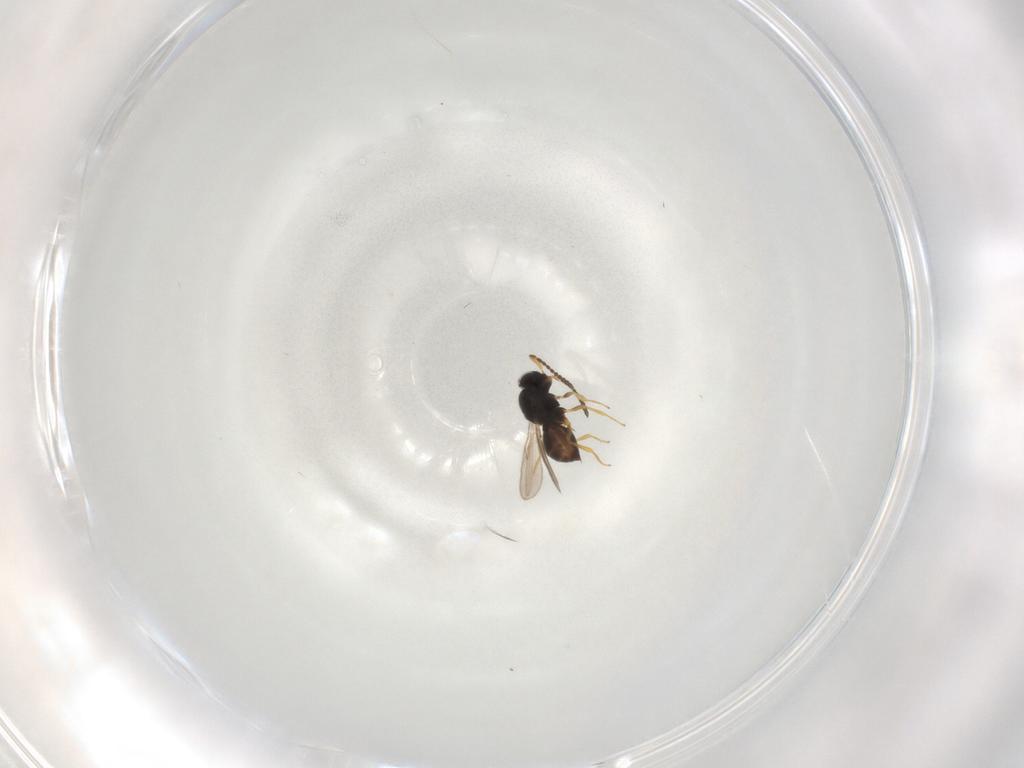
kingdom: Animalia
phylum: Arthropoda
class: Insecta
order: Hymenoptera
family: Scelionidae
